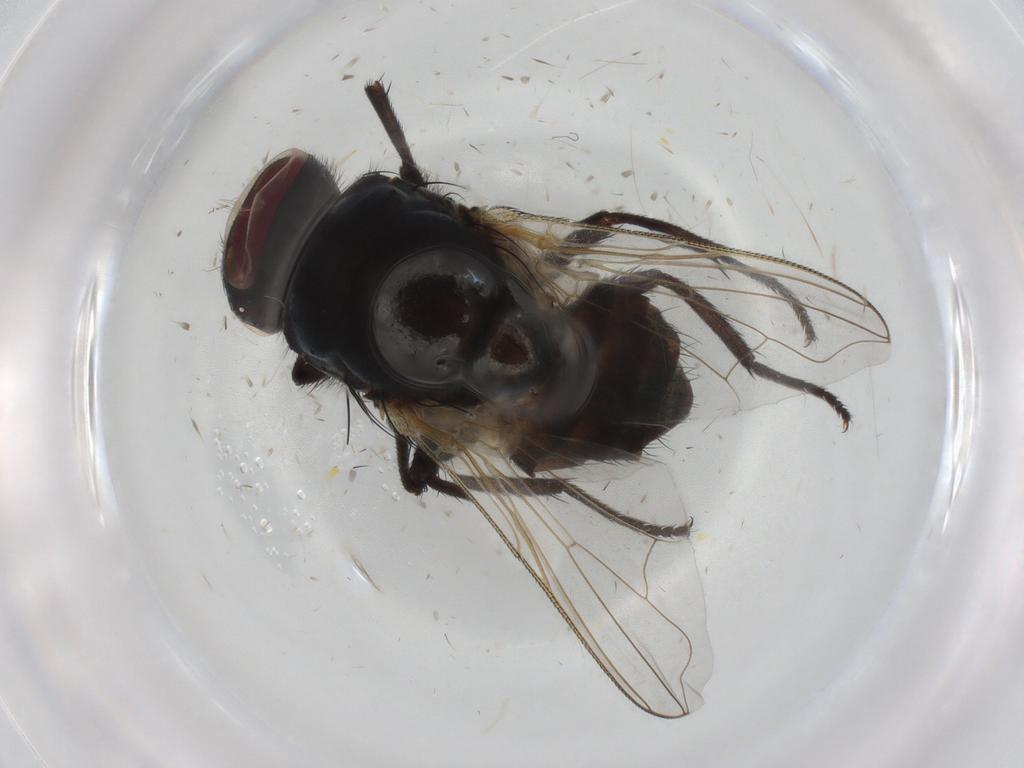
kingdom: Animalia
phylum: Arthropoda
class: Insecta
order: Diptera
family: Muscidae
